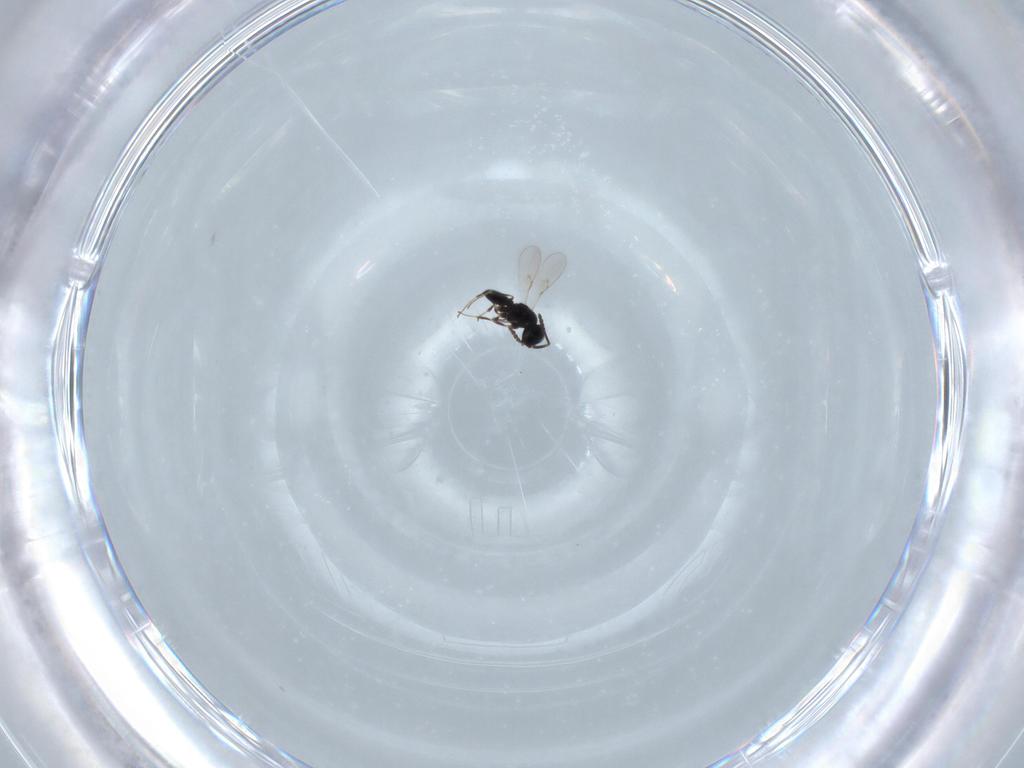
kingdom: Animalia
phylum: Arthropoda
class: Insecta
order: Hymenoptera
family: Scelionidae
